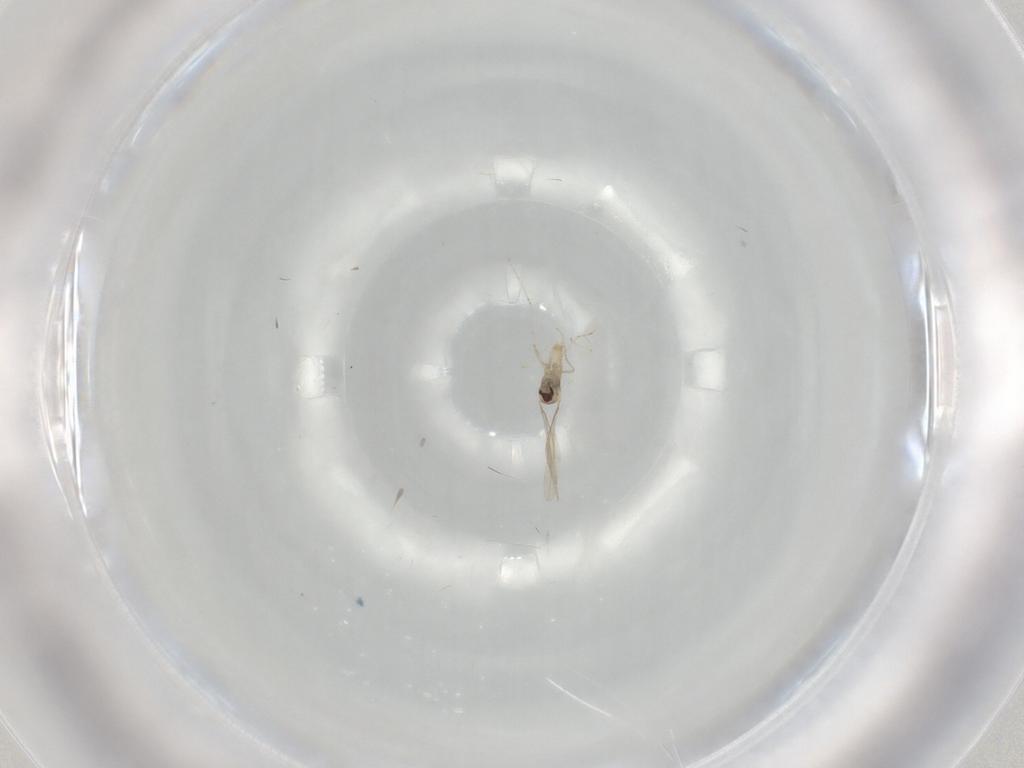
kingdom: Animalia
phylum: Arthropoda
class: Insecta
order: Diptera
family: Cecidomyiidae
